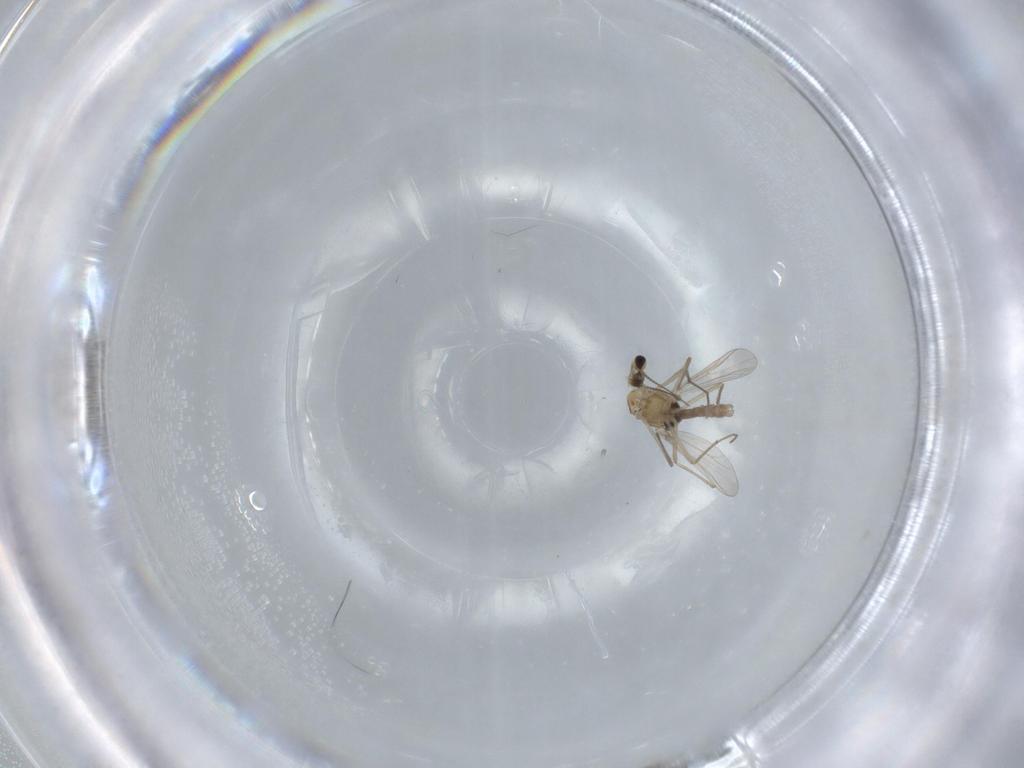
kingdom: Animalia
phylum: Arthropoda
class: Insecta
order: Diptera
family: Chironomidae
